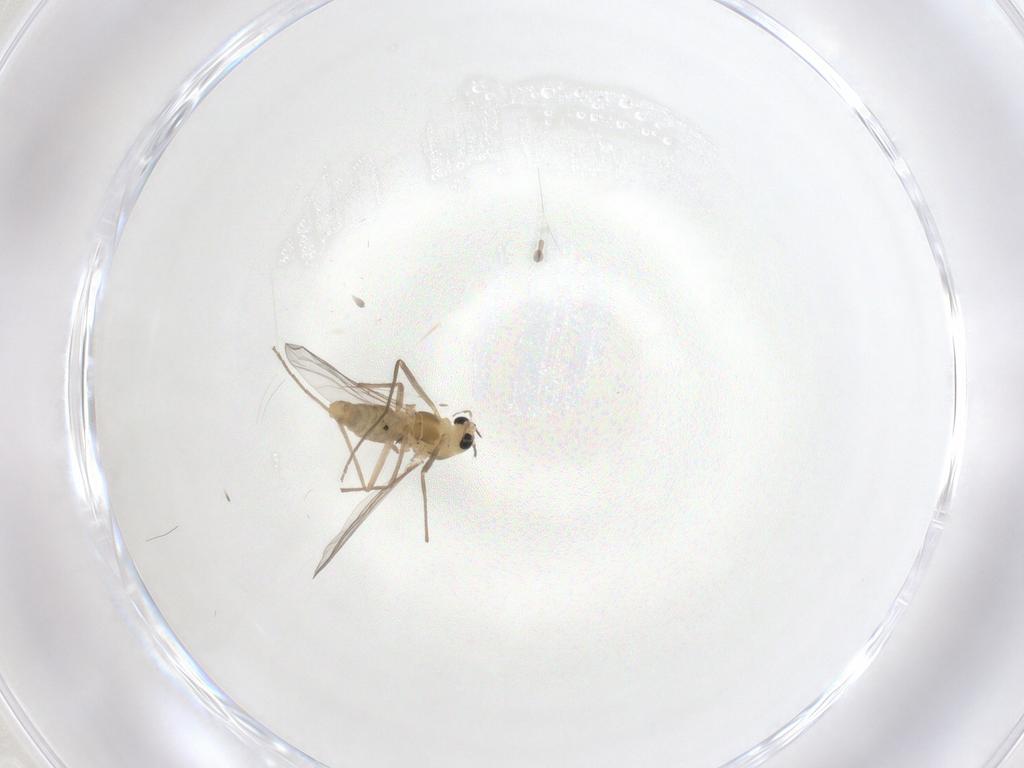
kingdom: Animalia
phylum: Arthropoda
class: Insecta
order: Diptera
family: Chironomidae
